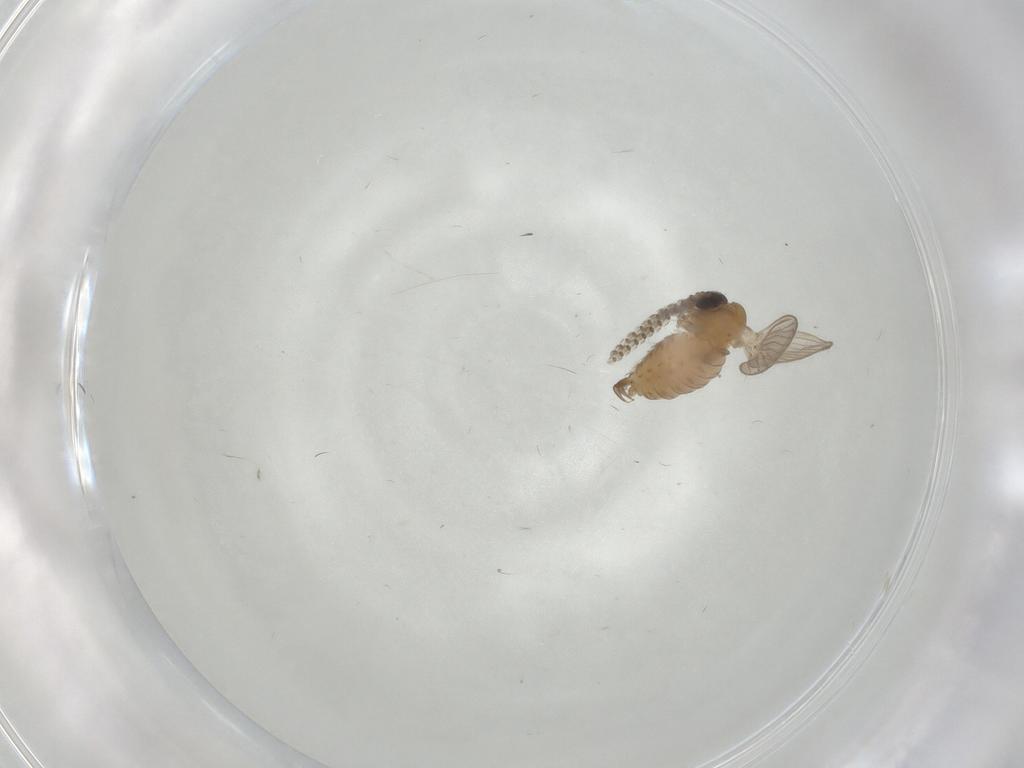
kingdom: Animalia
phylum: Arthropoda
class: Insecta
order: Diptera
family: Psychodidae
